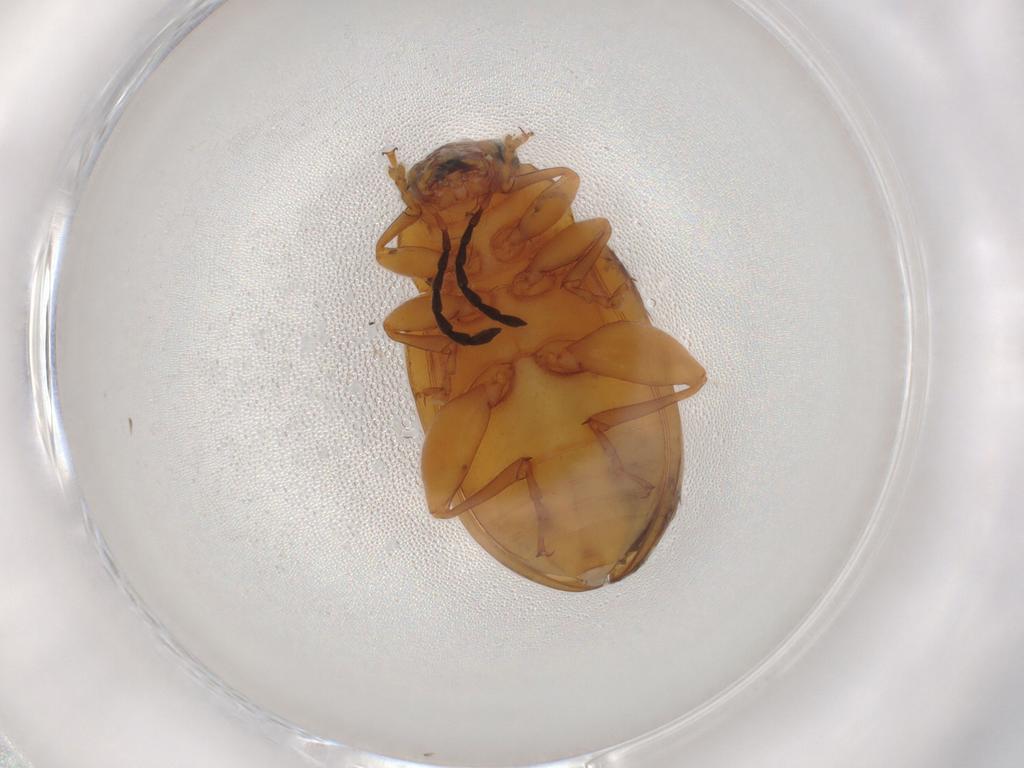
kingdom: Animalia
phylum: Arthropoda
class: Insecta
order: Coleoptera
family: Chrysomelidae
